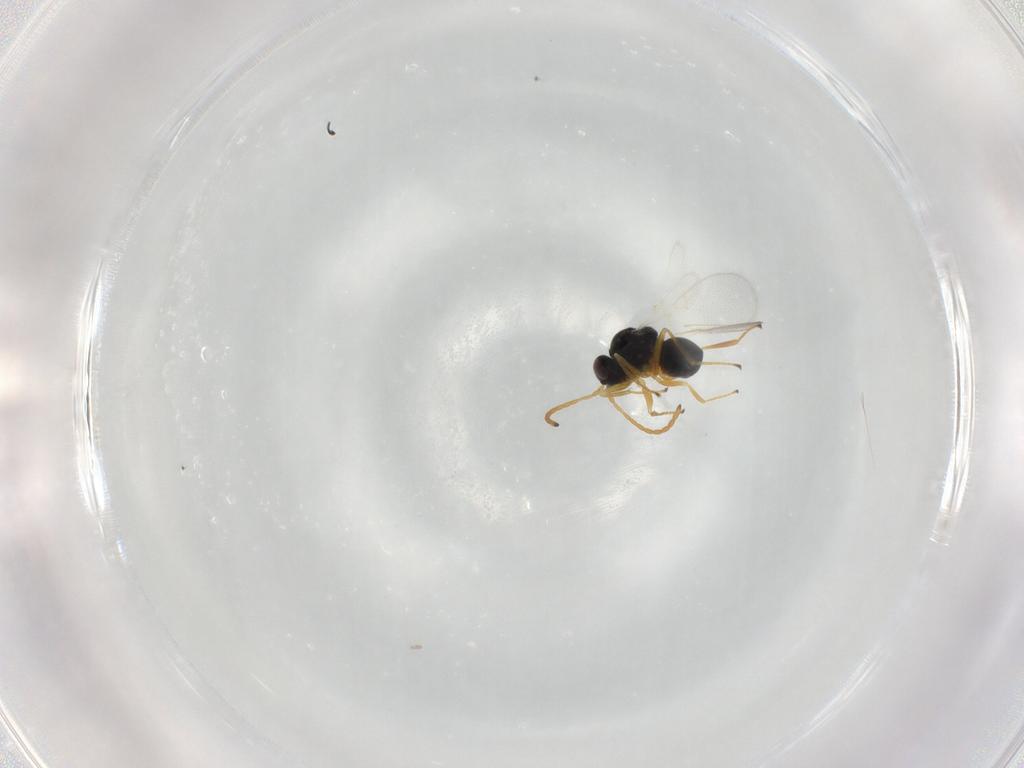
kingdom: Animalia
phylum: Arthropoda
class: Insecta
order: Hymenoptera
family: Figitidae
